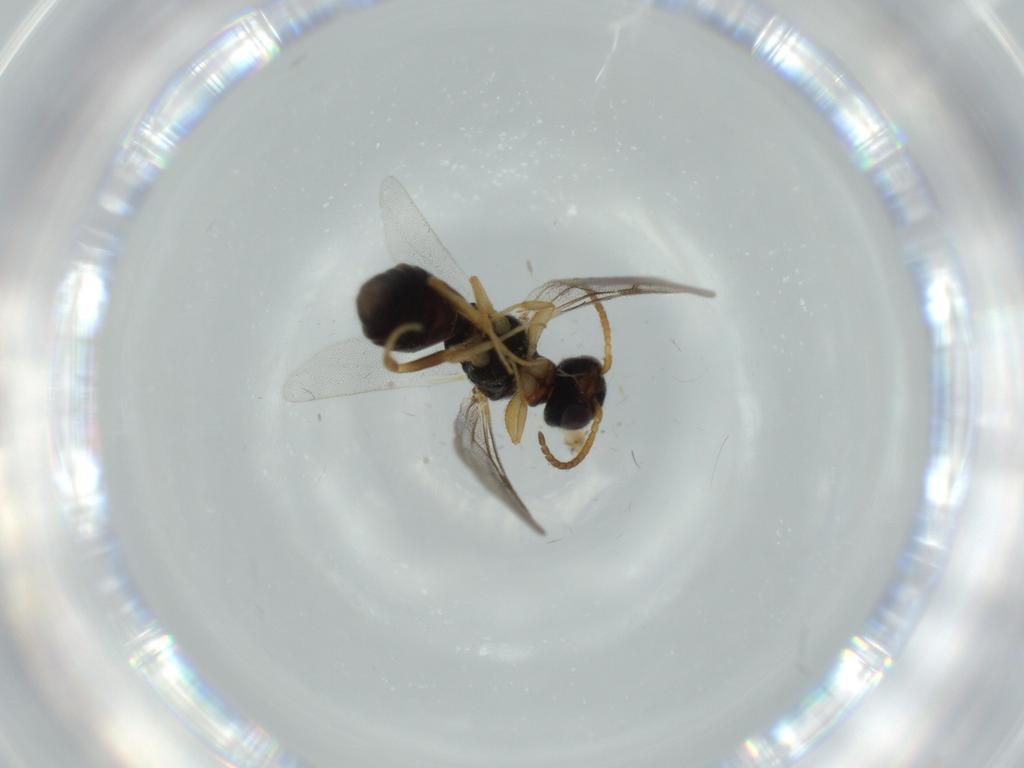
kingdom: Animalia
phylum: Arthropoda
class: Insecta
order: Hymenoptera
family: Bethylidae
